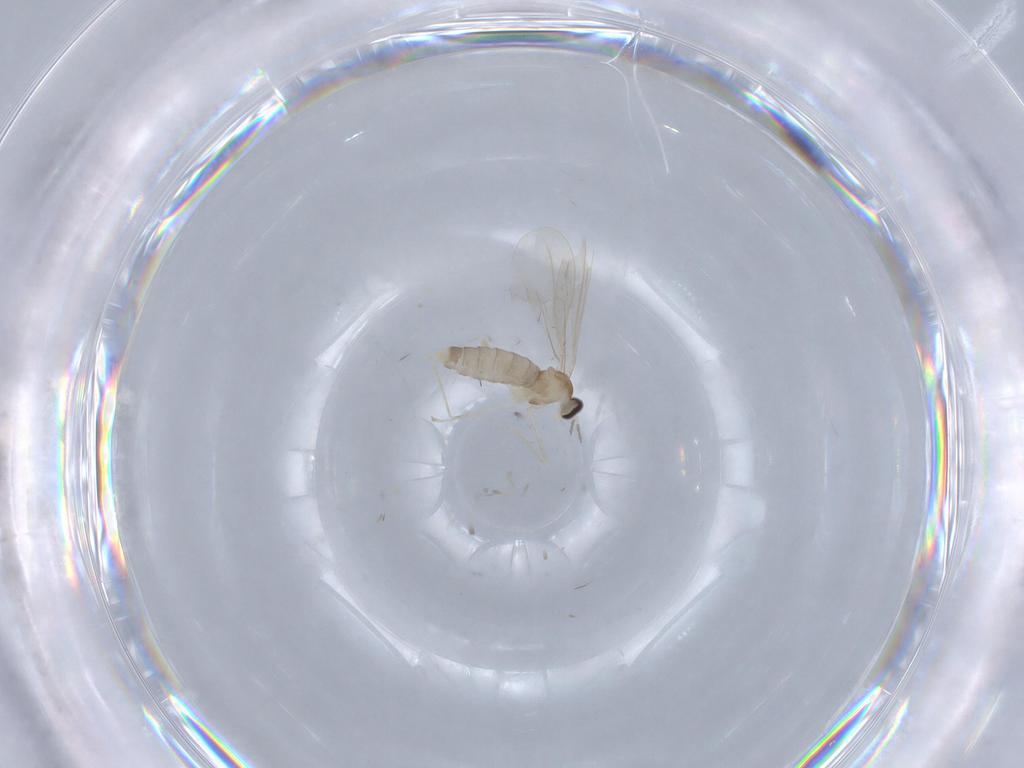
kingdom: Animalia
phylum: Arthropoda
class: Insecta
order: Diptera
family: Cecidomyiidae
